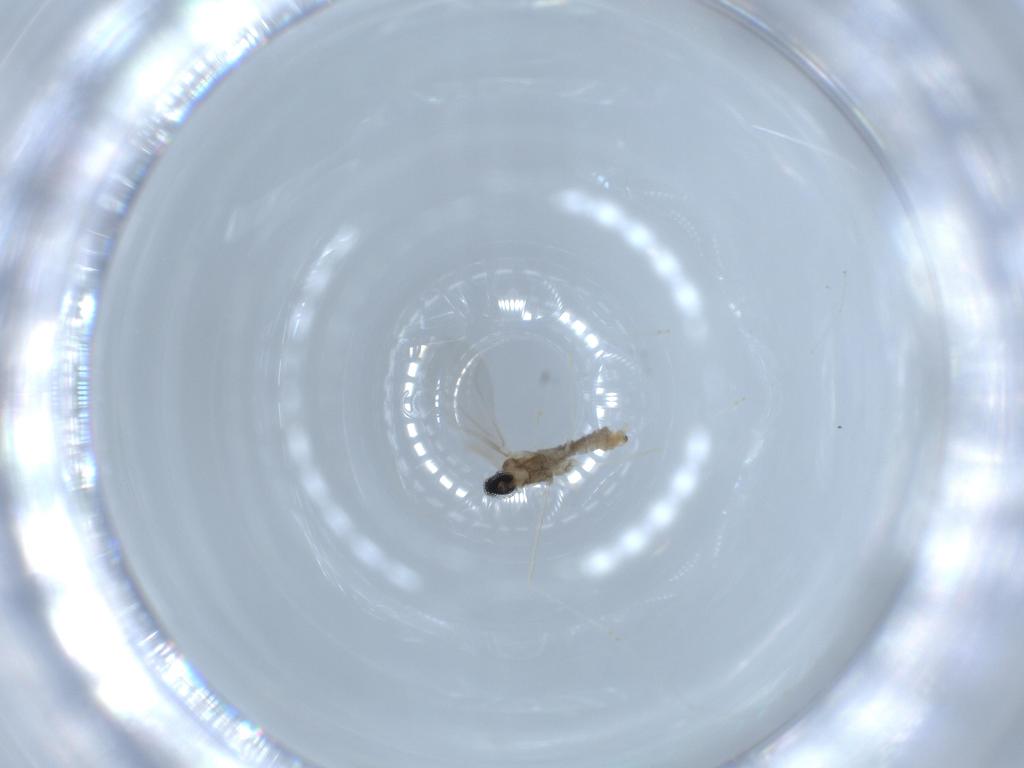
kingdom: Animalia
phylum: Arthropoda
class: Insecta
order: Diptera
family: Cecidomyiidae
